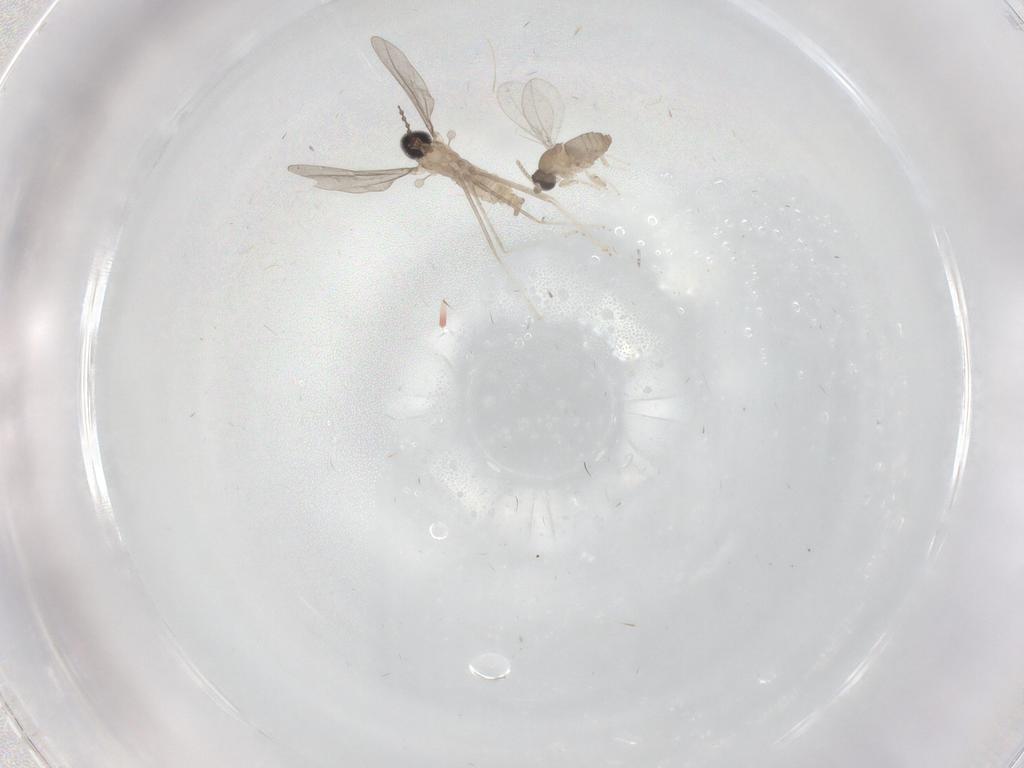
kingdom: Animalia
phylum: Arthropoda
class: Insecta
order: Diptera
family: Cecidomyiidae
